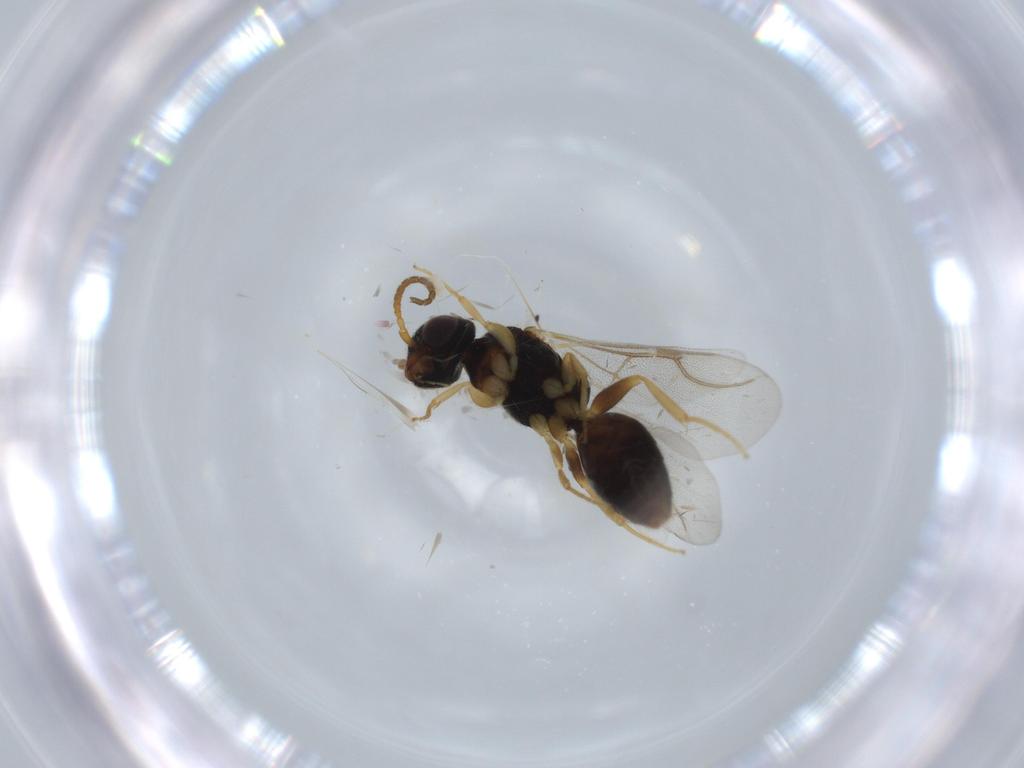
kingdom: Animalia
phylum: Arthropoda
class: Insecta
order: Hymenoptera
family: Bethylidae
